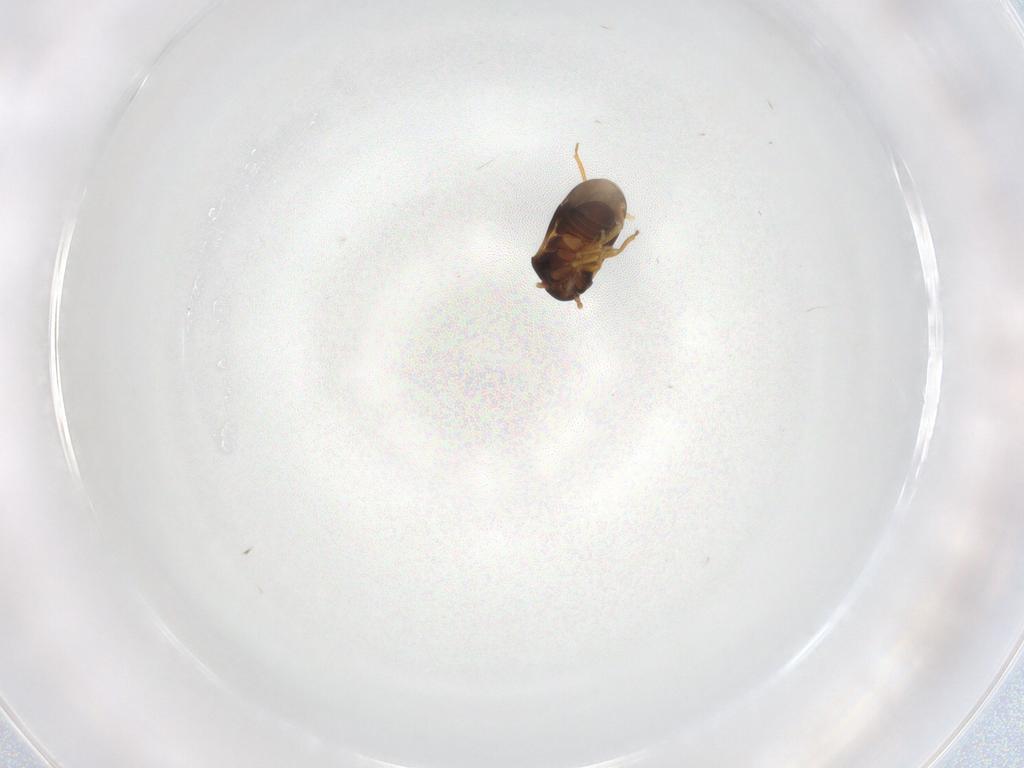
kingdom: Animalia
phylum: Arthropoda
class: Insecta
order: Hemiptera
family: Schizopteridae
